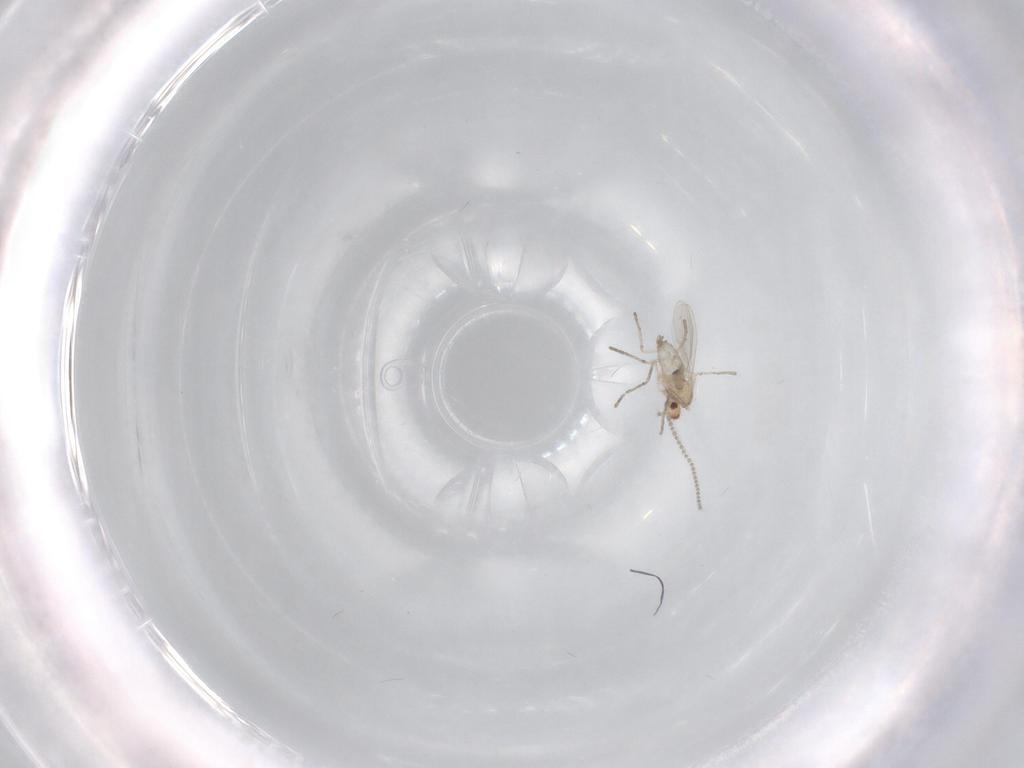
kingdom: Animalia
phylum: Arthropoda
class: Insecta
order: Diptera
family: Cecidomyiidae
